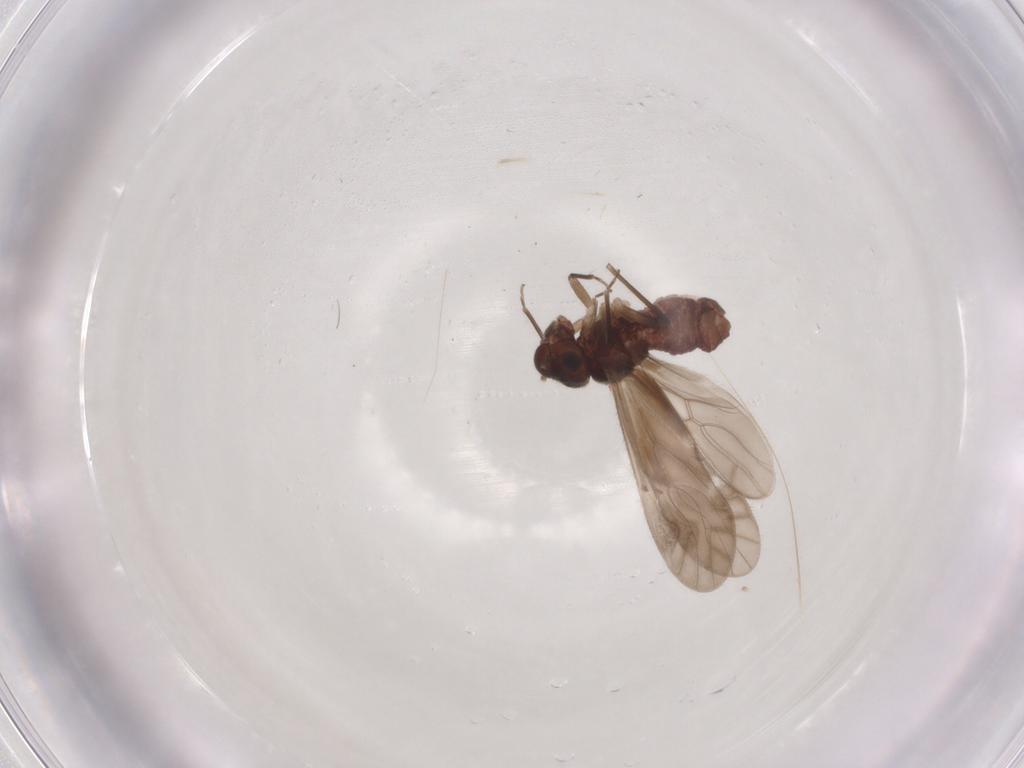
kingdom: Animalia
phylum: Arthropoda
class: Insecta
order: Psocodea
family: Caeciliusidae
